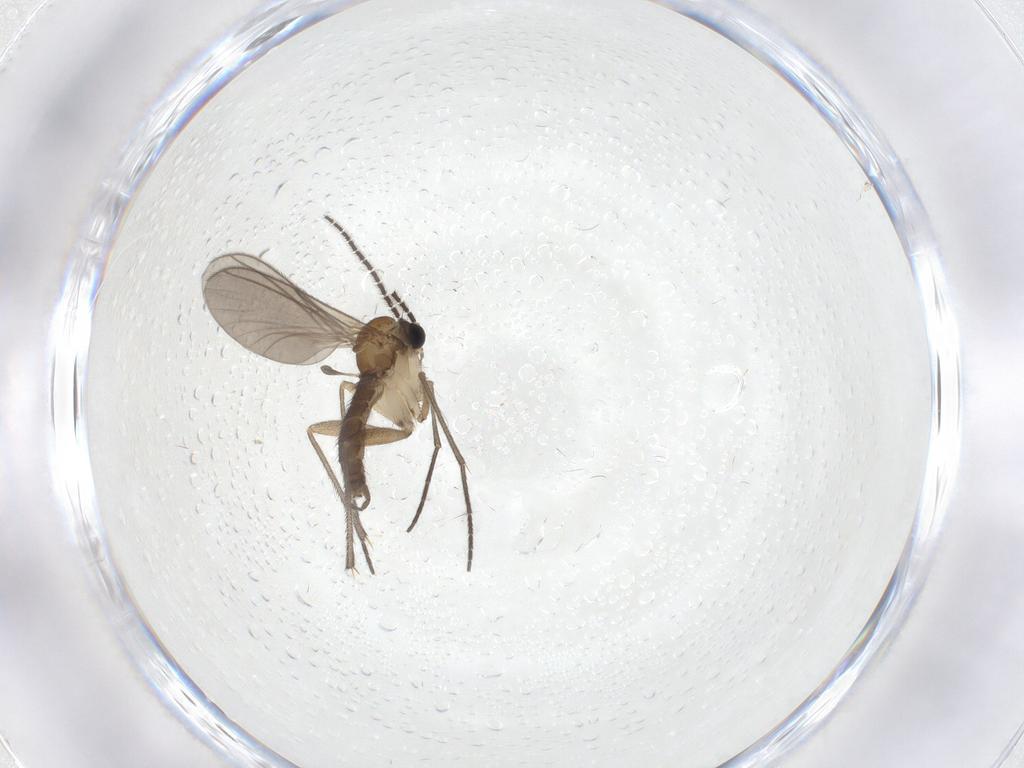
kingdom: Animalia
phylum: Arthropoda
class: Insecta
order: Diptera
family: Sciaridae
